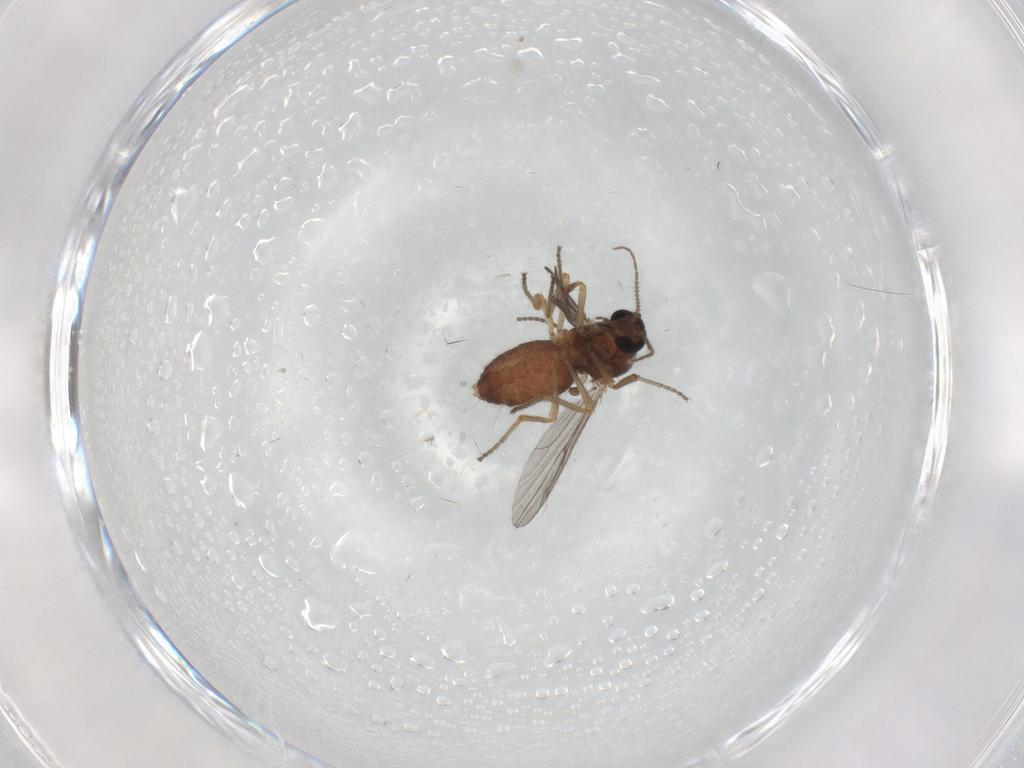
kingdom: Animalia
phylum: Arthropoda
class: Insecta
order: Diptera
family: Ceratopogonidae
